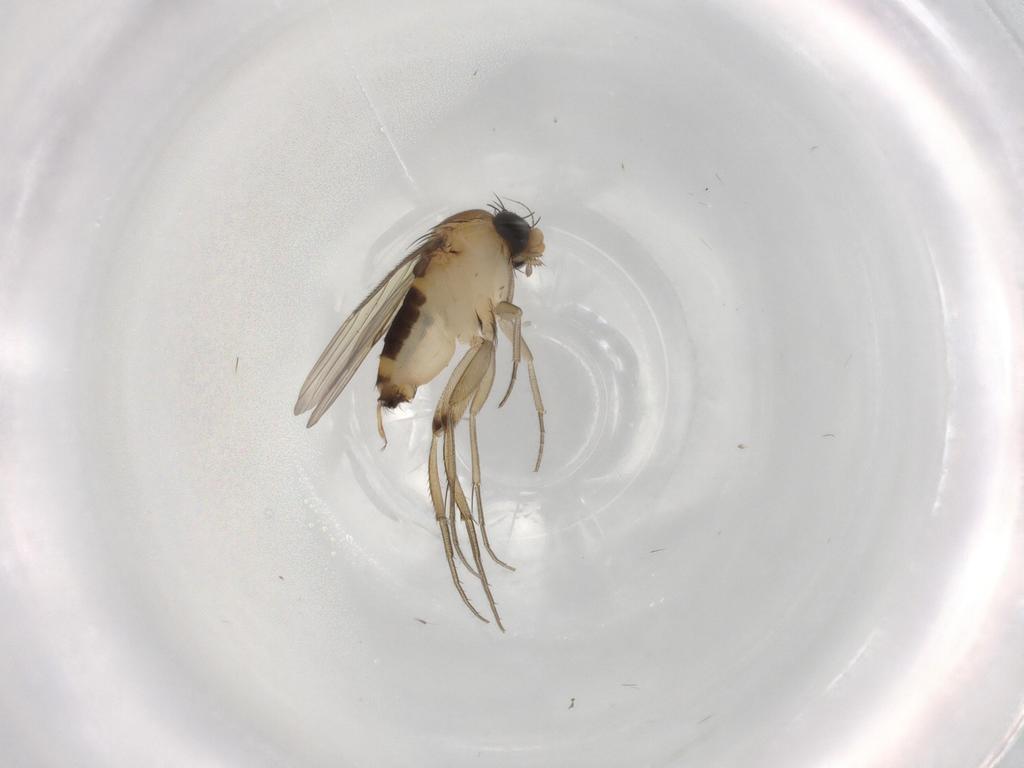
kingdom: Animalia
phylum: Arthropoda
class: Insecta
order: Diptera
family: Phoridae
